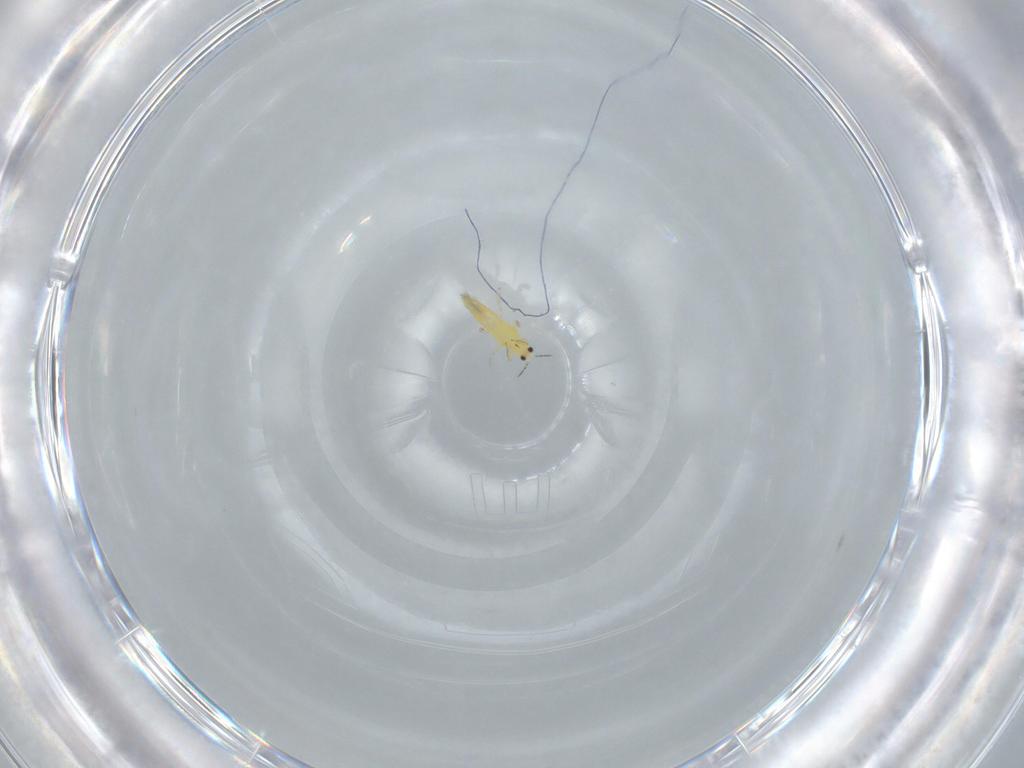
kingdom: Animalia
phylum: Arthropoda
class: Insecta
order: Thysanoptera
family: Thripidae
